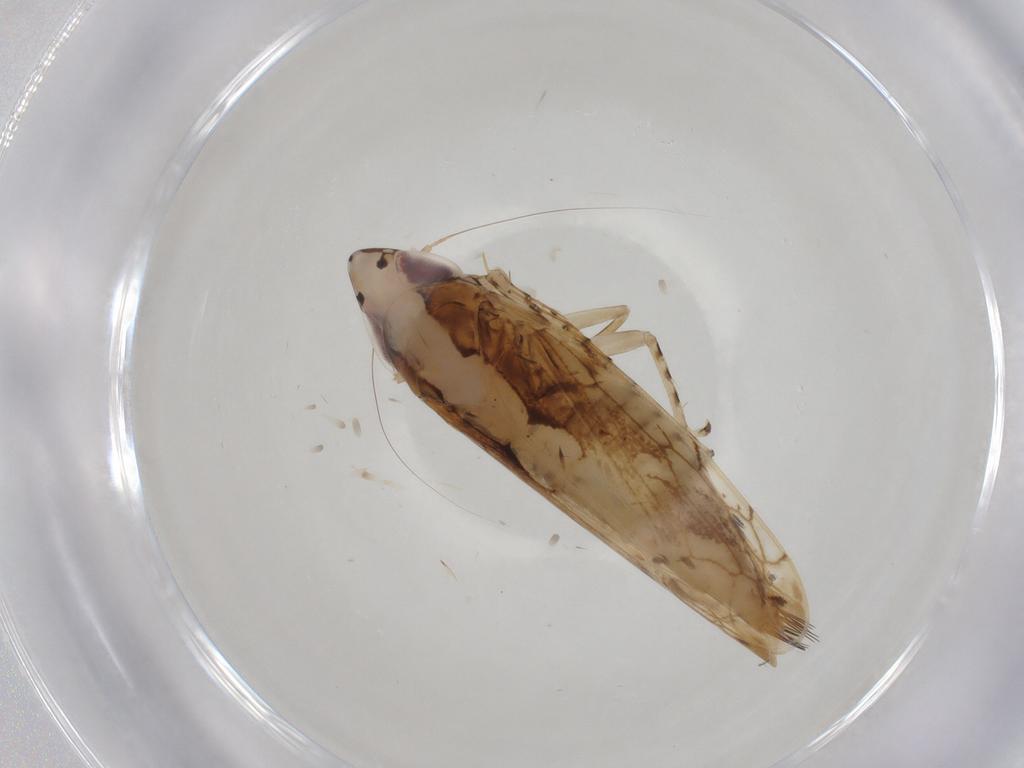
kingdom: Animalia
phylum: Arthropoda
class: Insecta
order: Hemiptera
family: Cicadellidae
